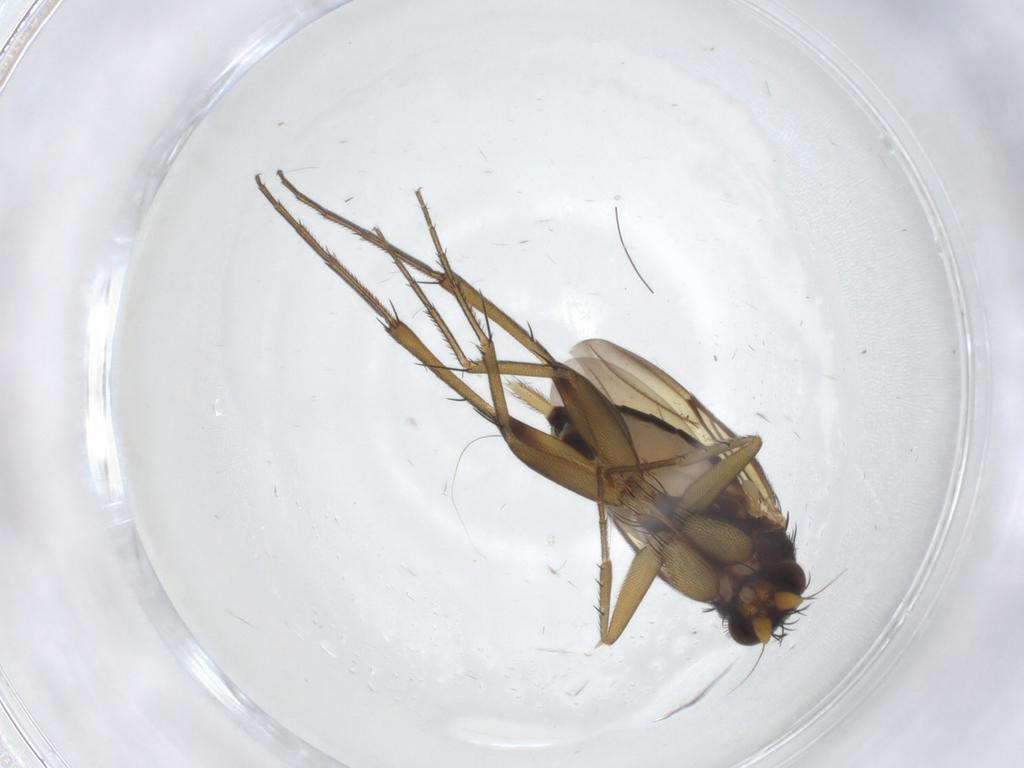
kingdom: Animalia
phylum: Arthropoda
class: Insecta
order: Diptera
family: Phoridae
